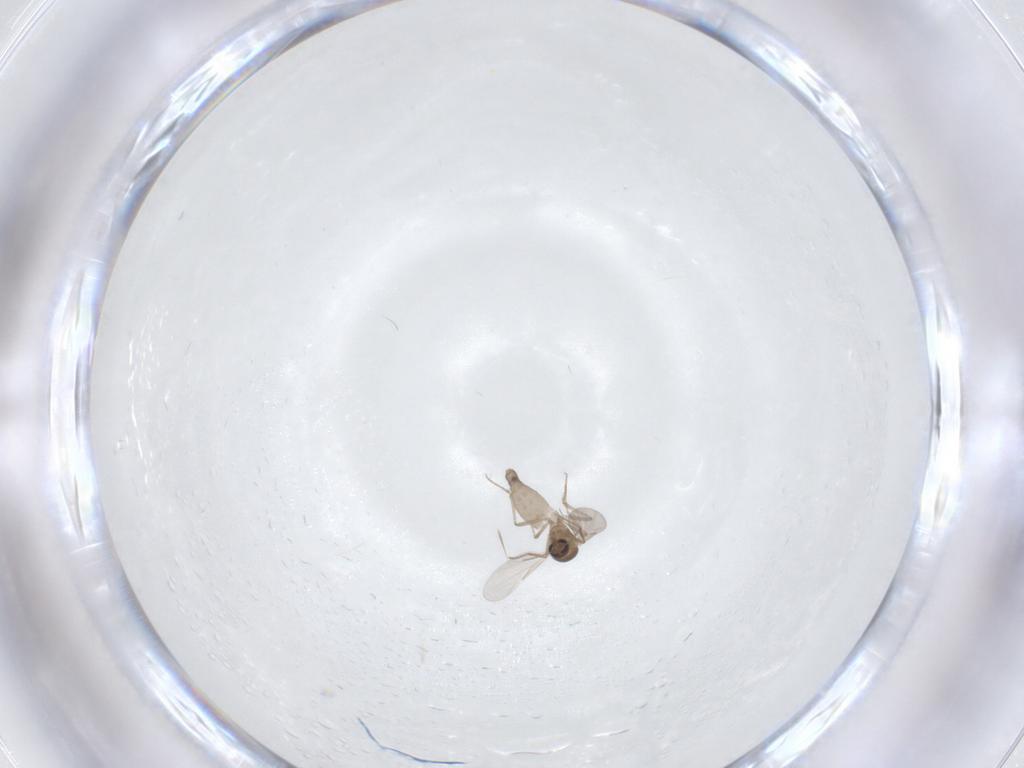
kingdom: Animalia
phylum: Arthropoda
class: Insecta
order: Diptera
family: Ceratopogonidae
